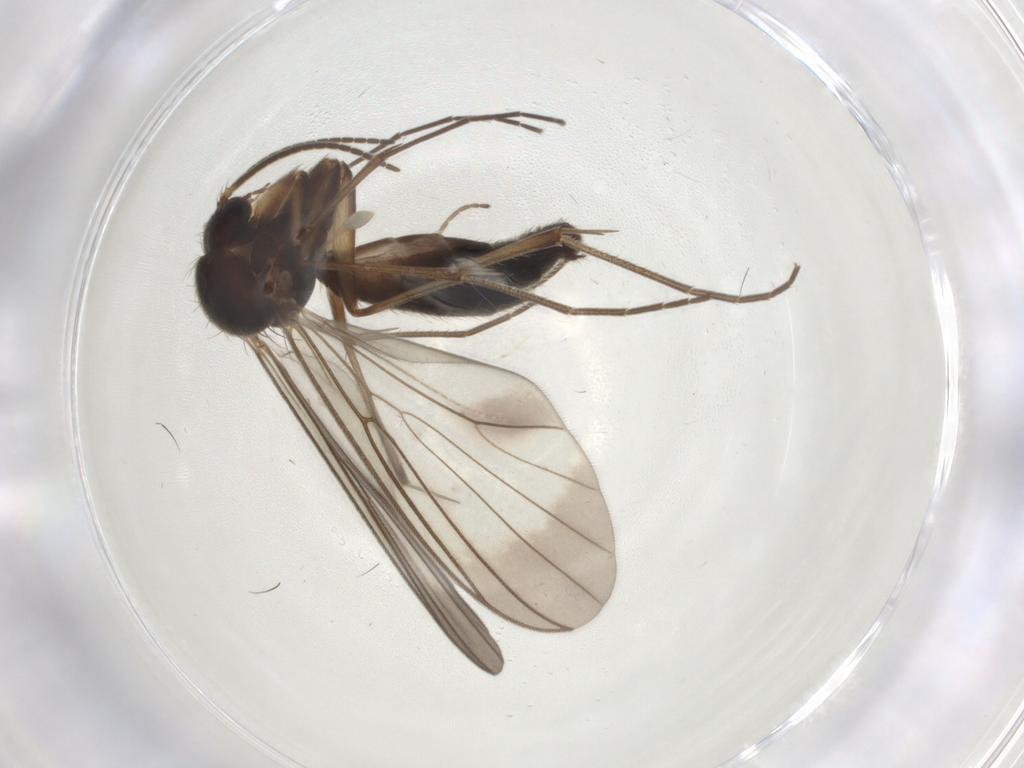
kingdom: Animalia
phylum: Arthropoda
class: Insecta
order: Diptera
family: Mycetophilidae
